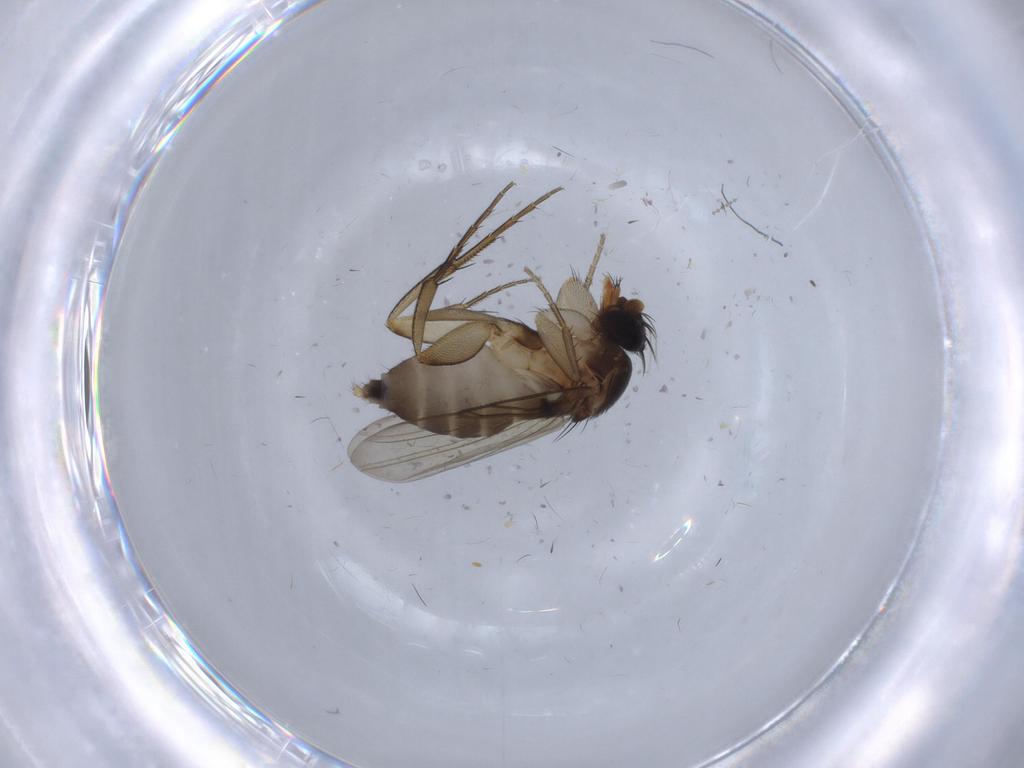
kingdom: Animalia
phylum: Arthropoda
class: Insecta
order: Diptera
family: Phoridae
